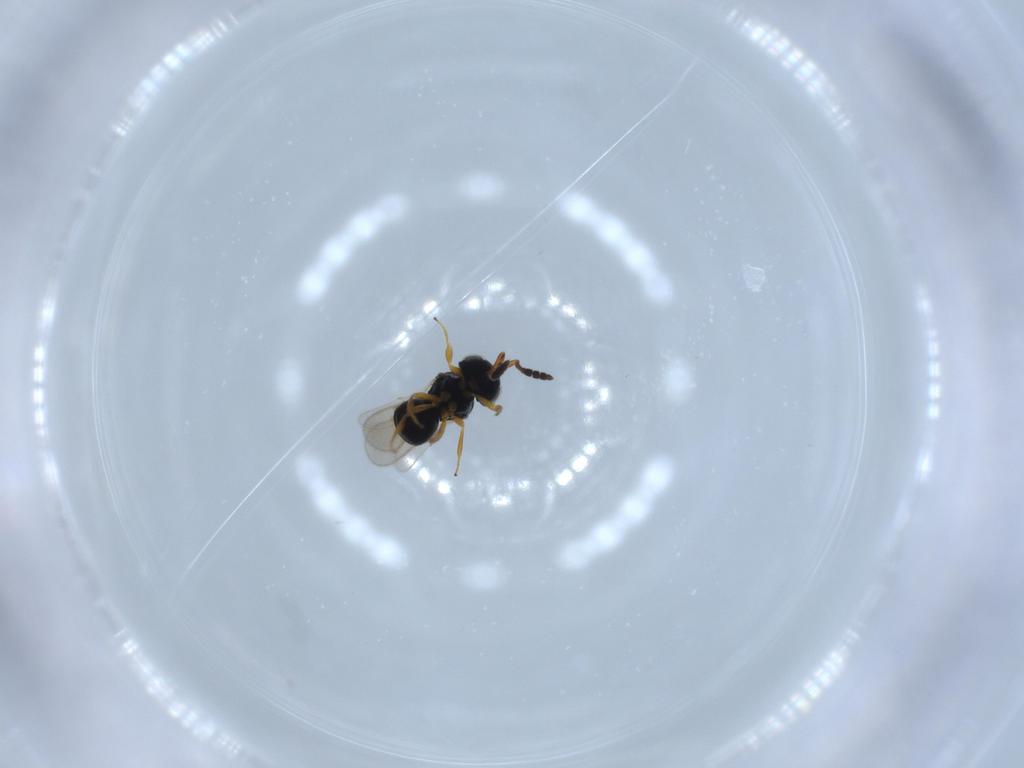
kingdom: Animalia
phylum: Arthropoda
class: Insecta
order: Hymenoptera
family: Scelionidae
